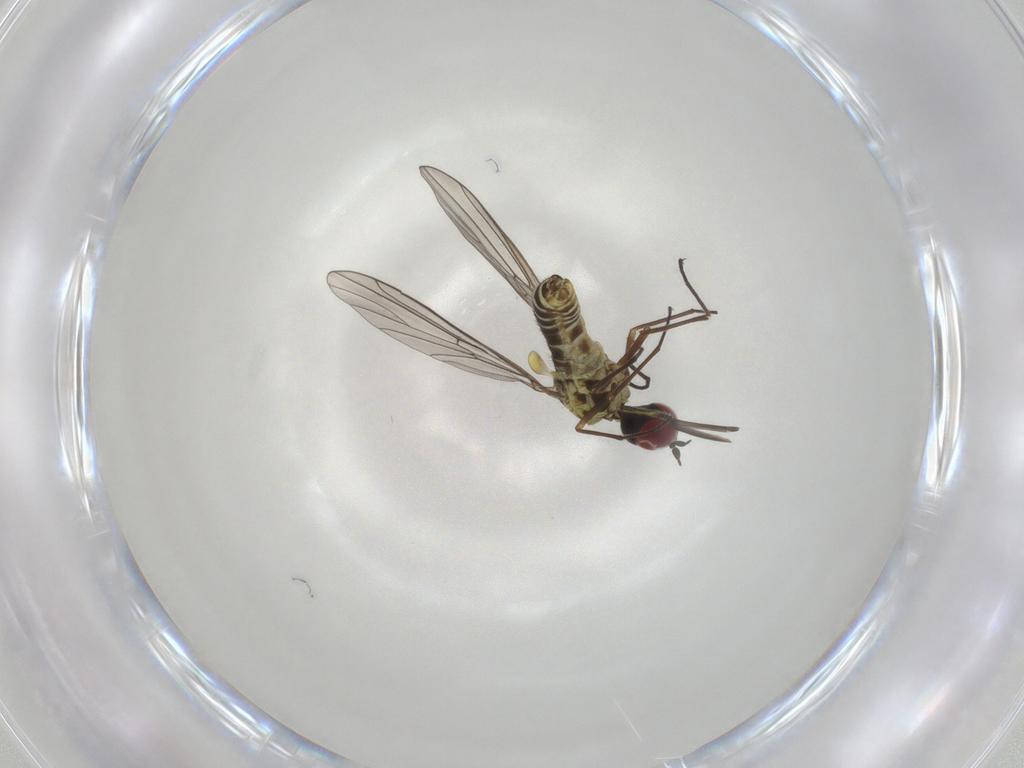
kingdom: Animalia
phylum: Arthropoda
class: Insecta
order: Diptera
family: Ceratopogonidae
